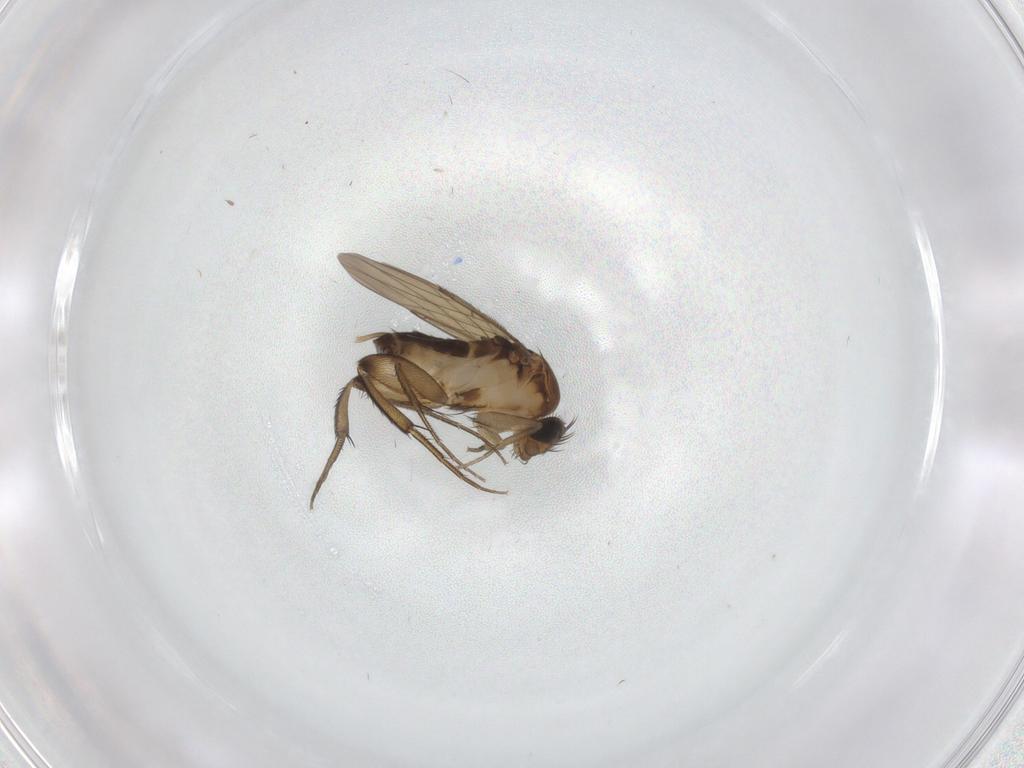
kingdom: Animalia
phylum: Arthropoda
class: Insecta
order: Diptera
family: Phoridae
